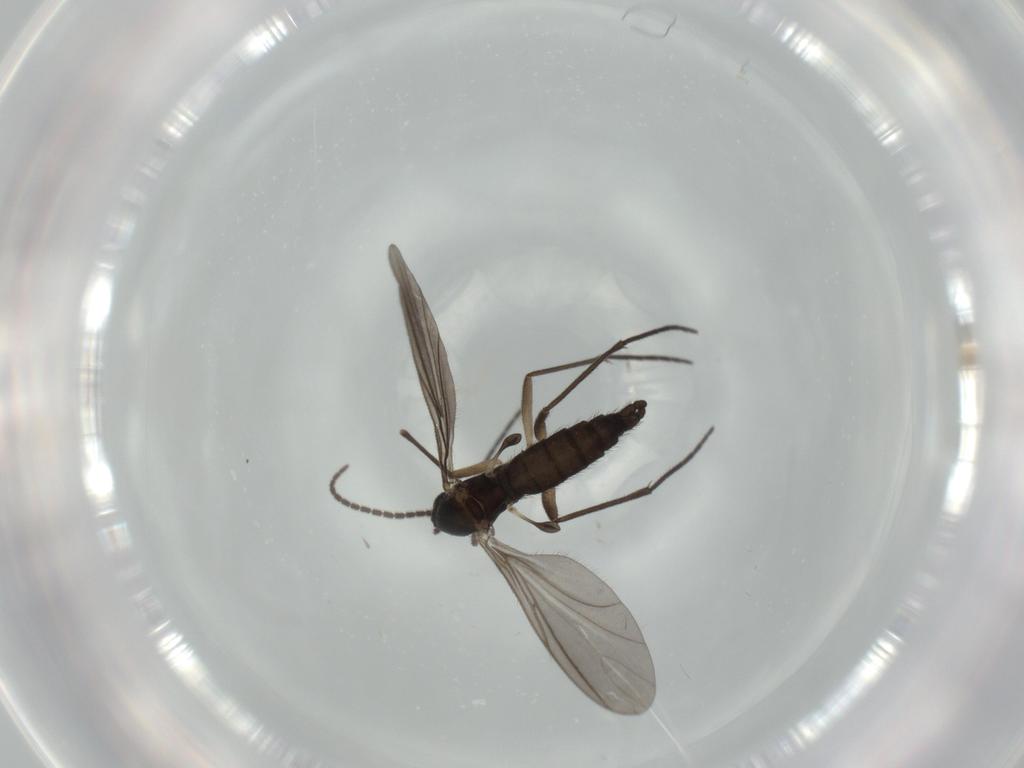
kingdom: Animalia
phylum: Arthropoda
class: Insecta
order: Diptera
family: Sciaridae
